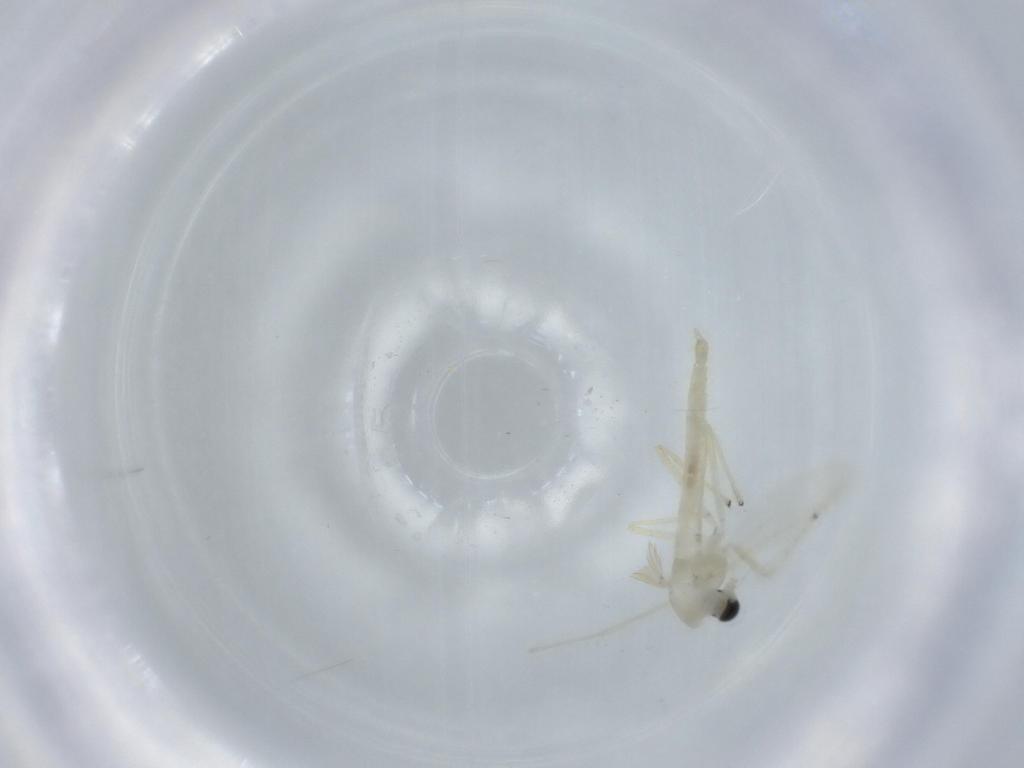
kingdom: Animalia
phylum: Arthropoda
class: Insecta
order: Diptera
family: Chironomidae
